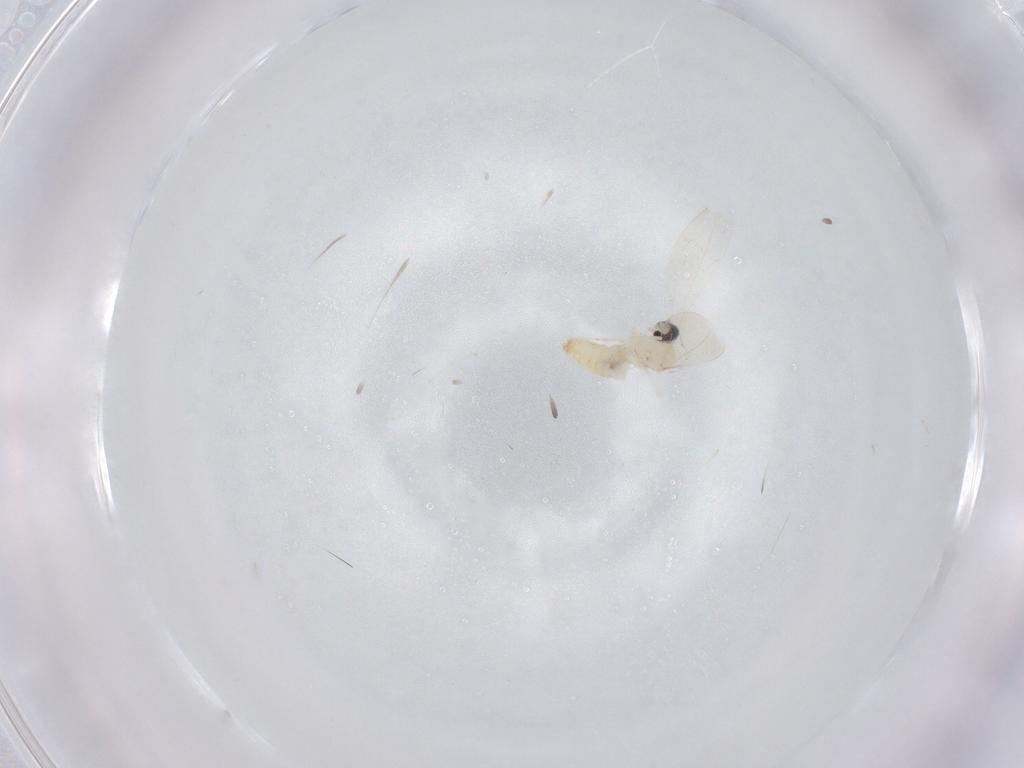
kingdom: Animalia
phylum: Arthropoda
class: Insecta
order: Diptera
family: Cecidomyiidae
